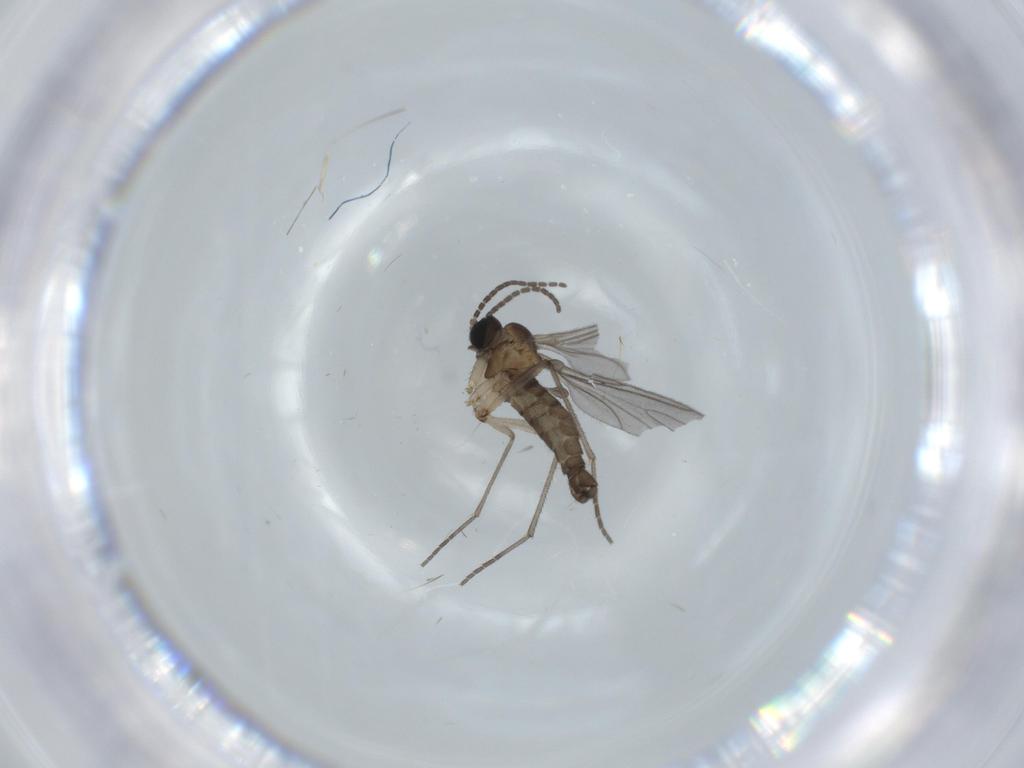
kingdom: Animalia
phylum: Arthropoda
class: Insecta
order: Diptera
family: Sciaridae
